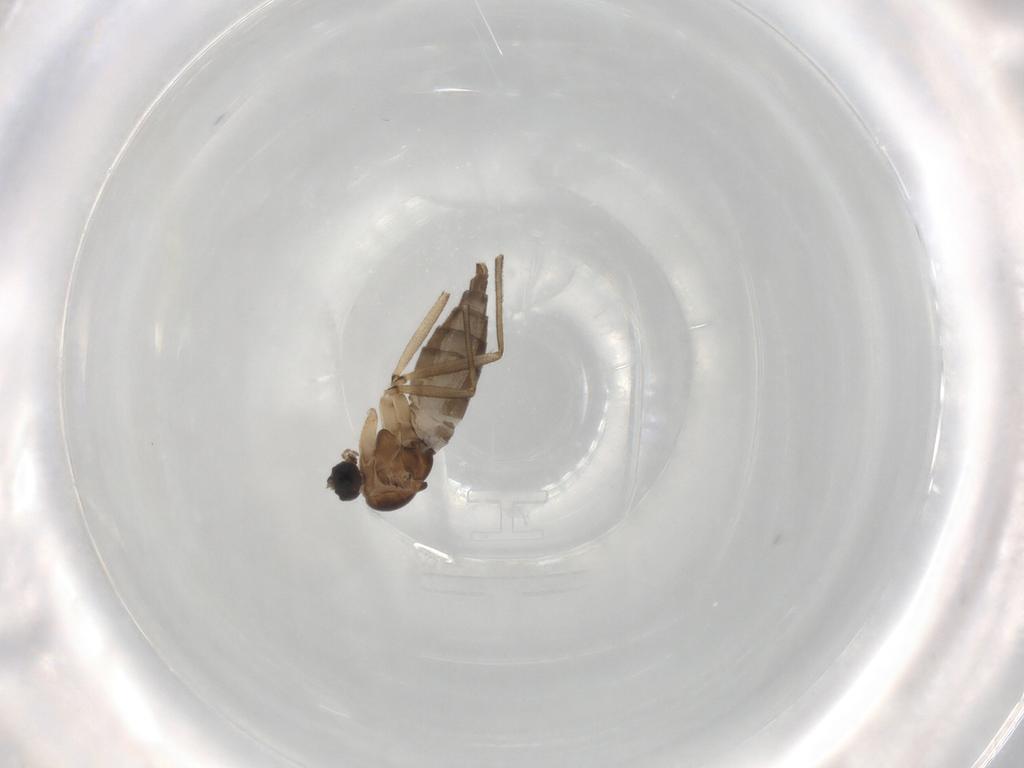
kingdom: Animalia
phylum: Arthropoda
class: Insecta
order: Diptera
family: Sciaridae
